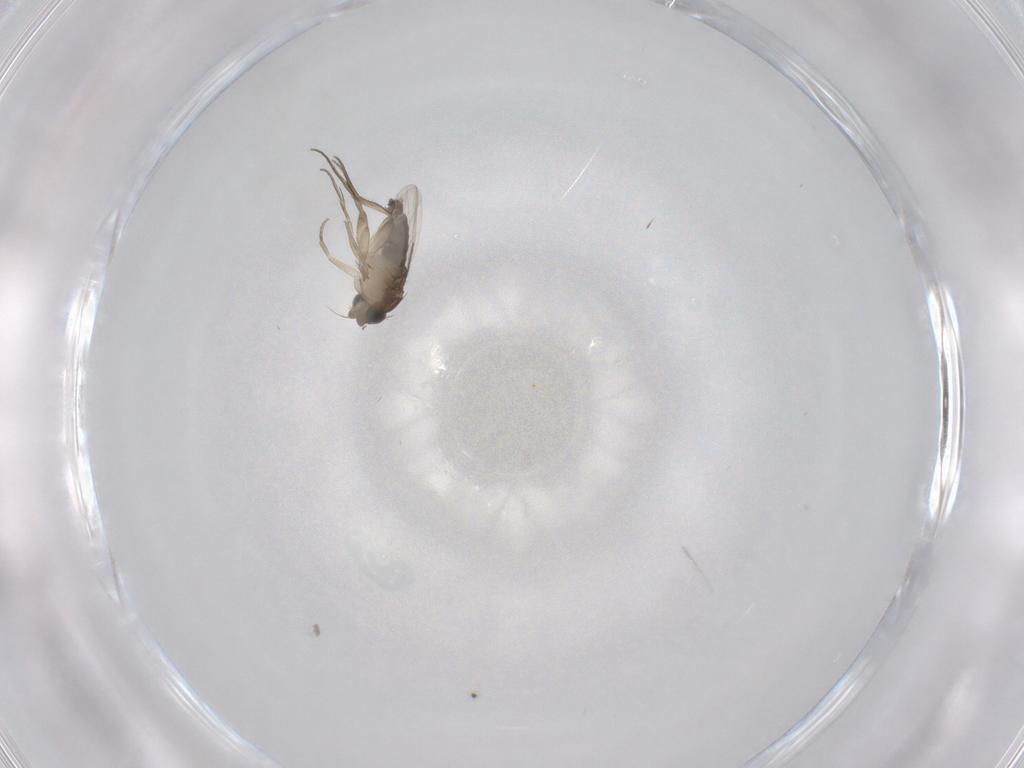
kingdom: Animalia
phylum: Arthropoda
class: Insecta
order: Diptera
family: Phoridae
